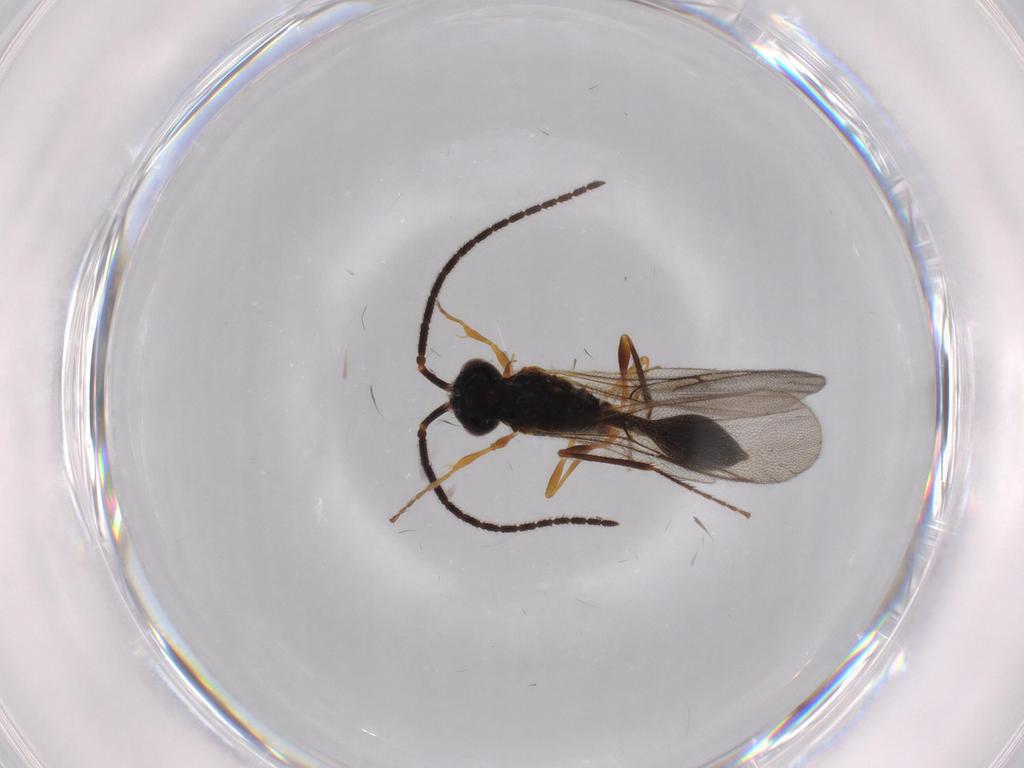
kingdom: Animalia
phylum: Arthropoda
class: Insecta
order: Hymenoptera
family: Diapriidae
